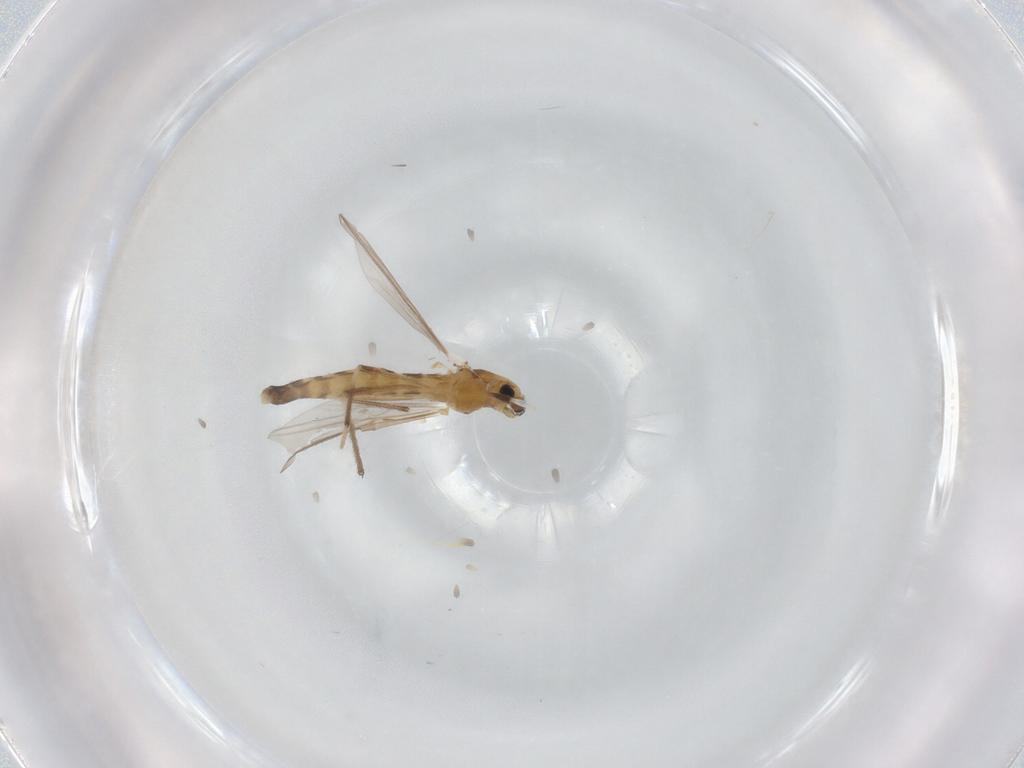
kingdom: Animalia
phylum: Arthropoda
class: Insecta
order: Diptera
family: Chironomidae
